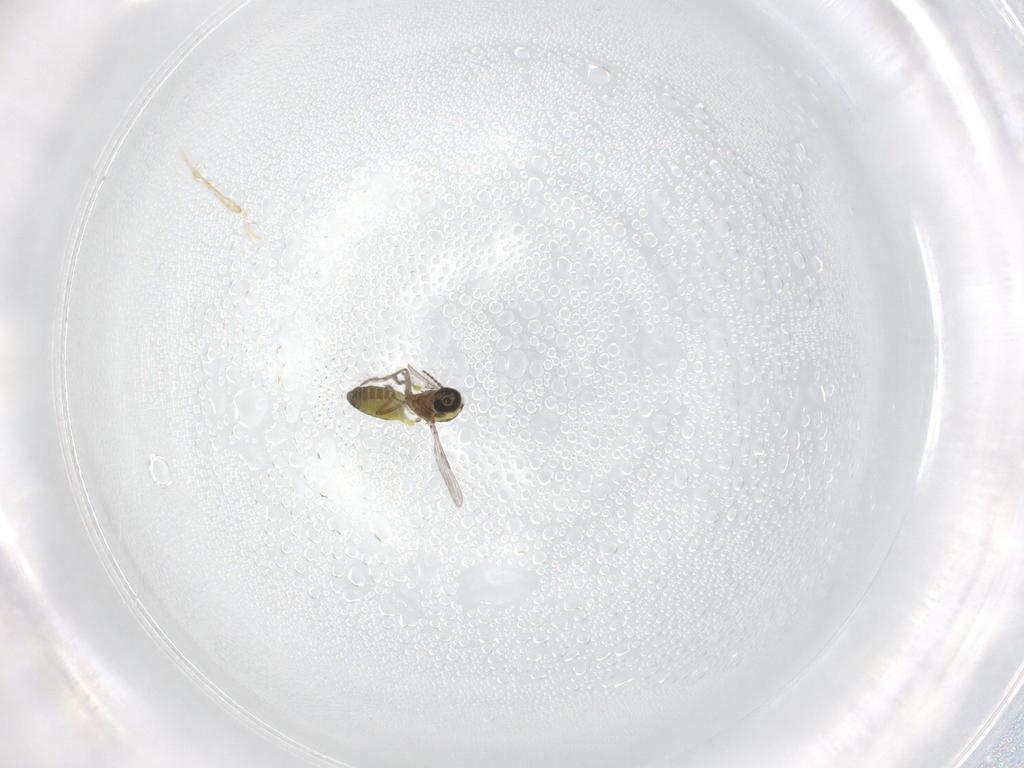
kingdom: Animalia
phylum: Arthropoda
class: Insecta
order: Diptera
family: Ceratopogonidae
